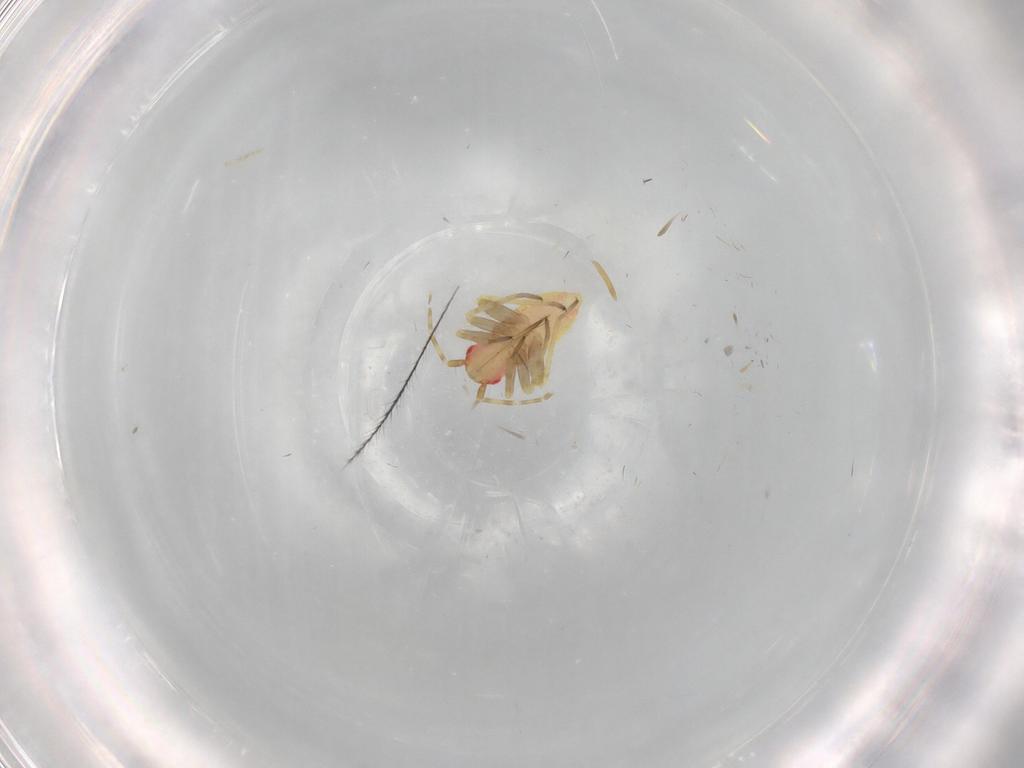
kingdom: Animalia
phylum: Arthropoda
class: Insecta
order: Hemiptera
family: Miridae
